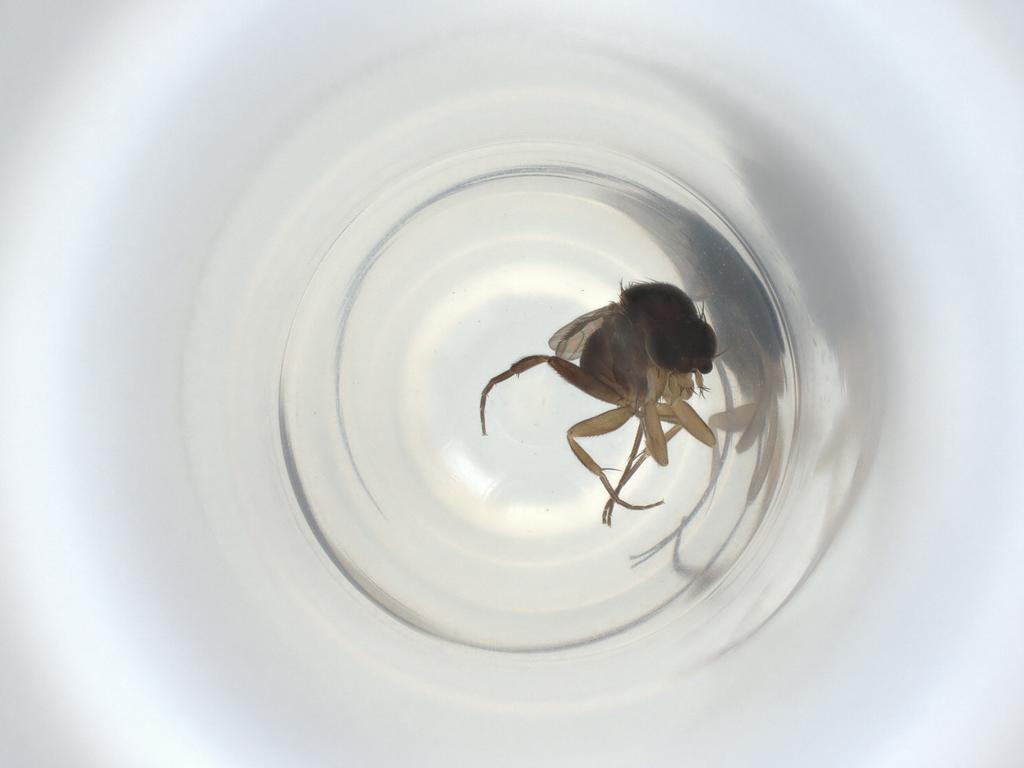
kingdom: Animalia
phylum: Arthropoda
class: Insecta
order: Diptera
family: Phoridae
